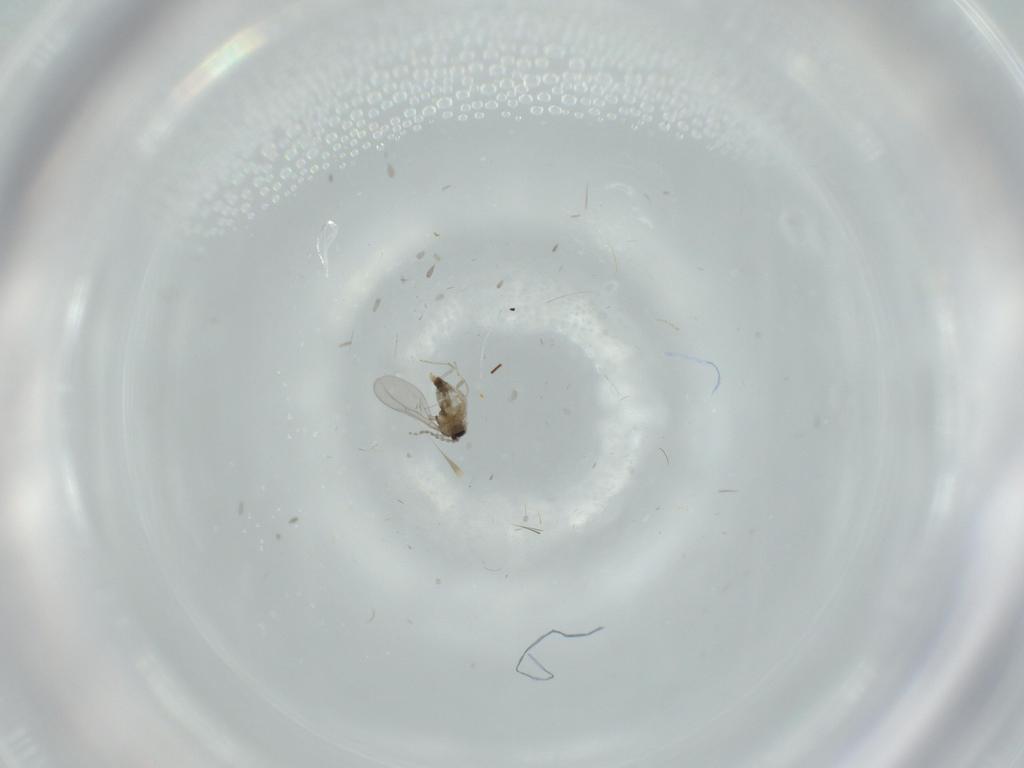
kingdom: Animalia
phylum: Arthropoda
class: Insecta
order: Diptera
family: Cecidomyiidae
